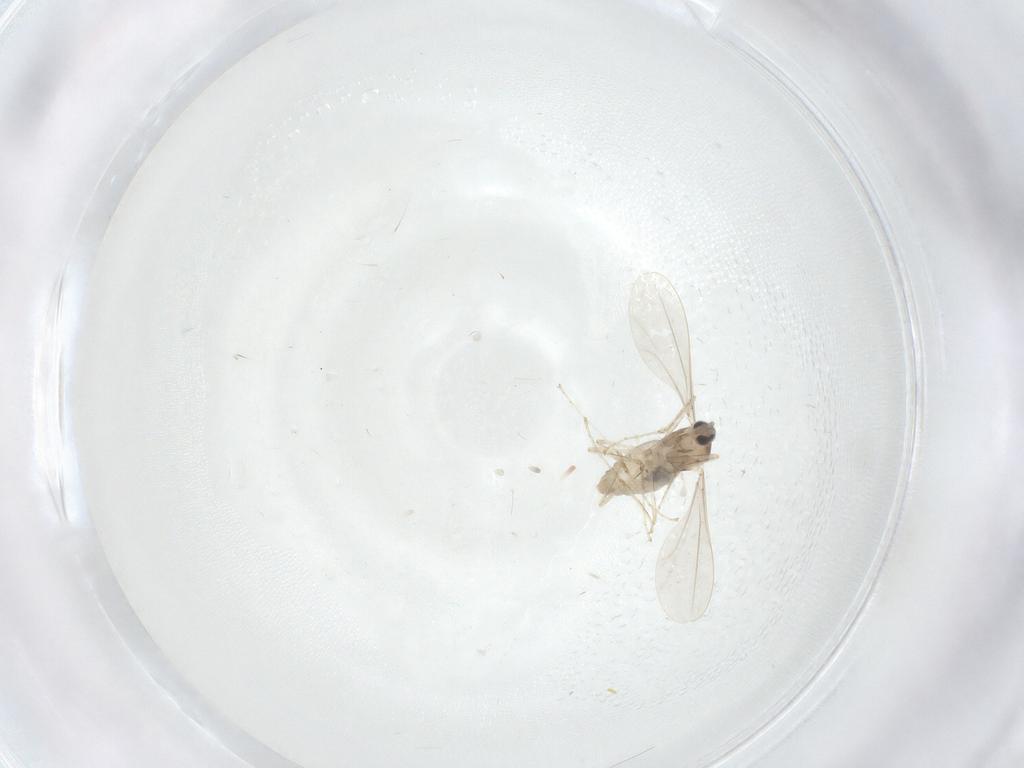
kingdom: Animalia
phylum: Arthropoda
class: Insecta
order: Diptera
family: Cecidomyiidae
